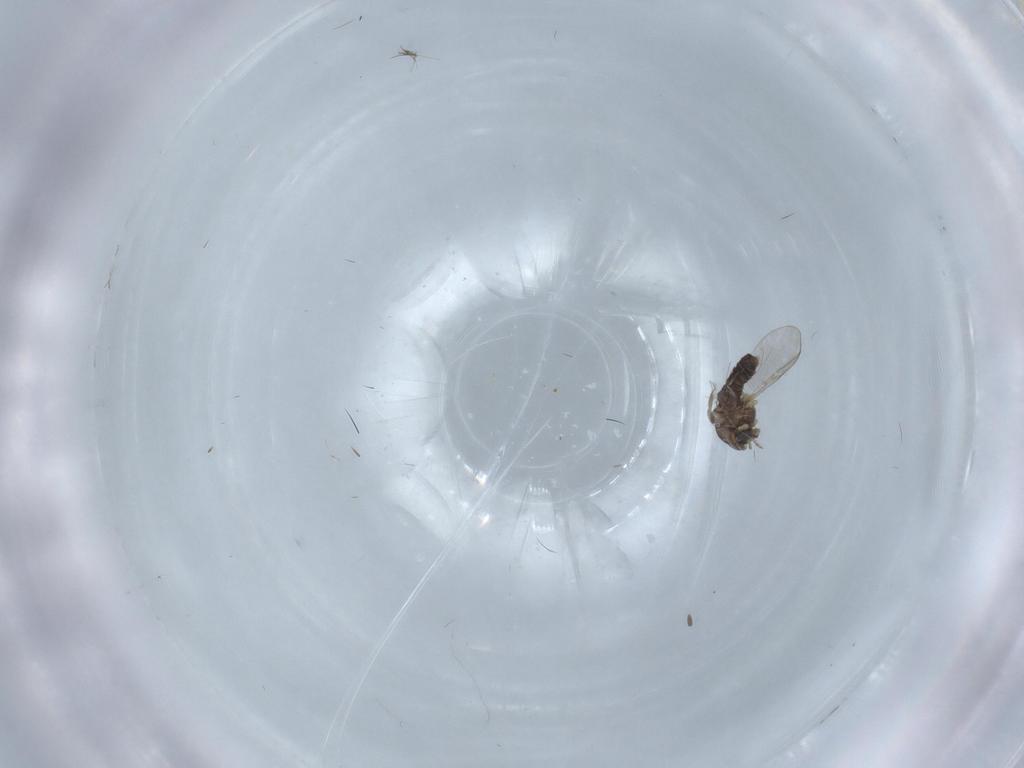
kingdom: Animalia
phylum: Arthropoda
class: Insecta
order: Diptera
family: Chironomidae
